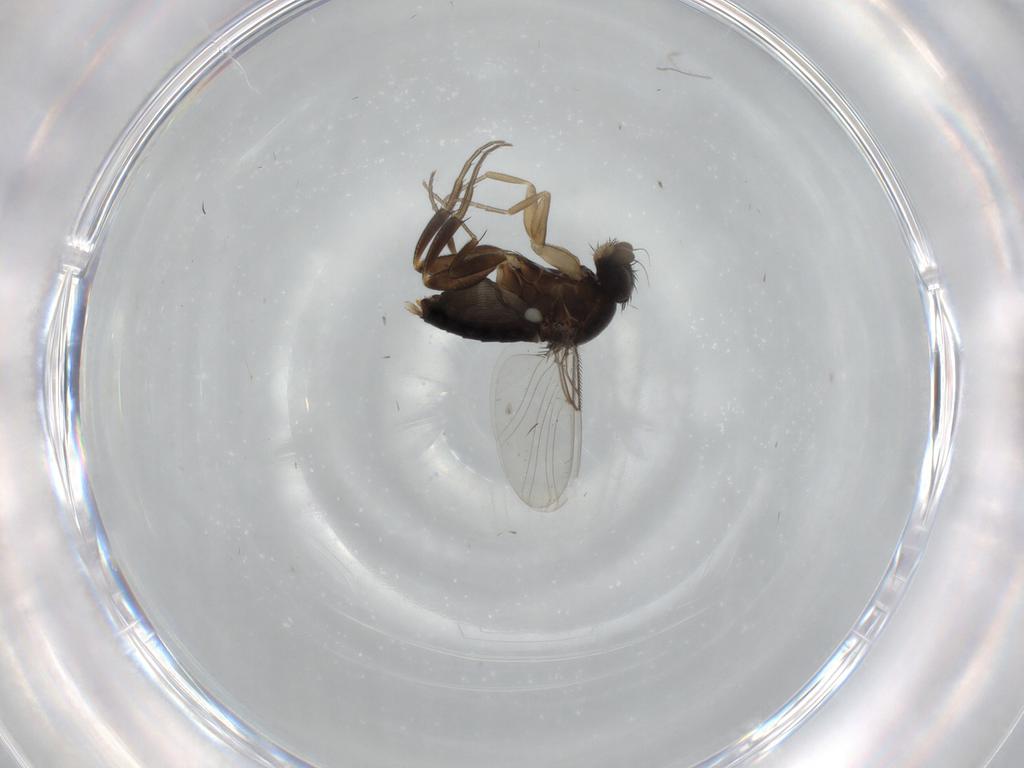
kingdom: Animalia
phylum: Arthropoda
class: Insecta
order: Diptera
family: Phoridae
